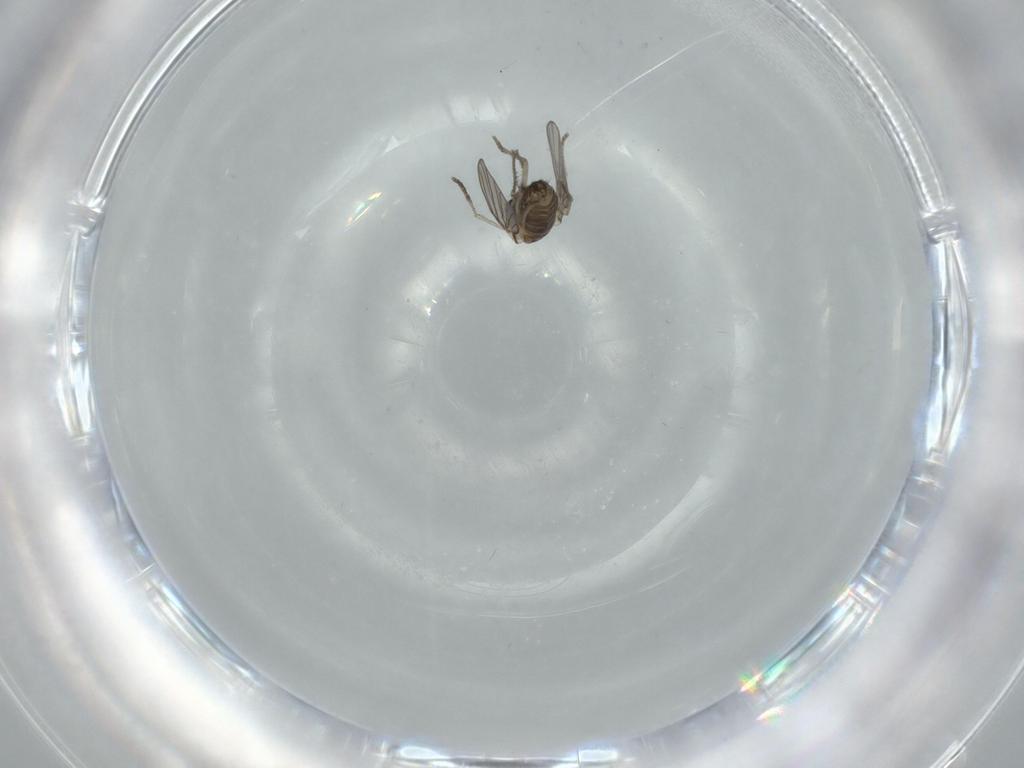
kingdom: Animalia
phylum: Arthropoda
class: Insecta
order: Diptera
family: Psychodidae
